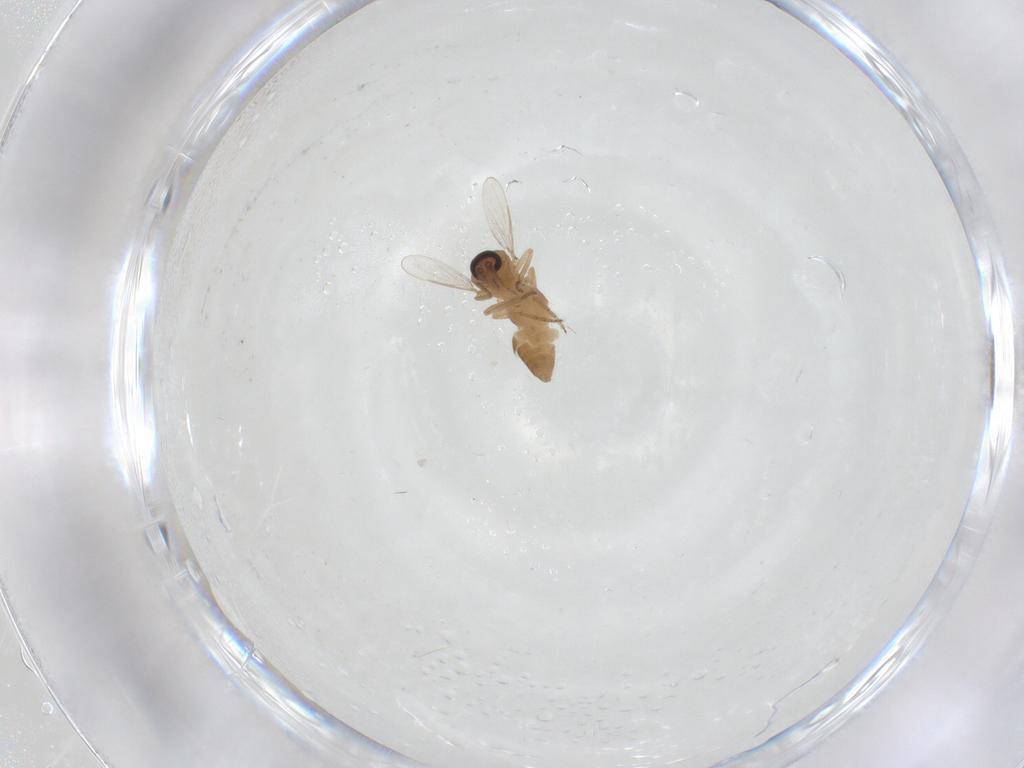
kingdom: Animalia
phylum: Arthropoda
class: Insecta
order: Diptera
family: Ceratopogonidae
